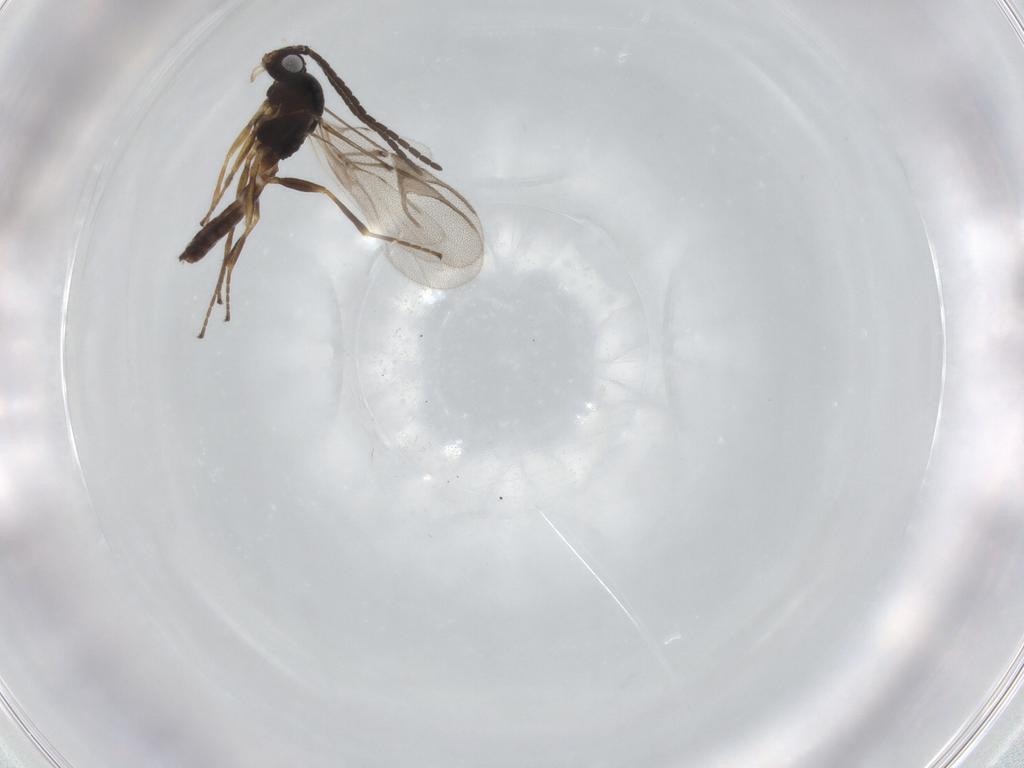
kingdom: Animalia
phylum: Arthropoda
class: Insecta
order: Hymenoptera
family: Braconidae
